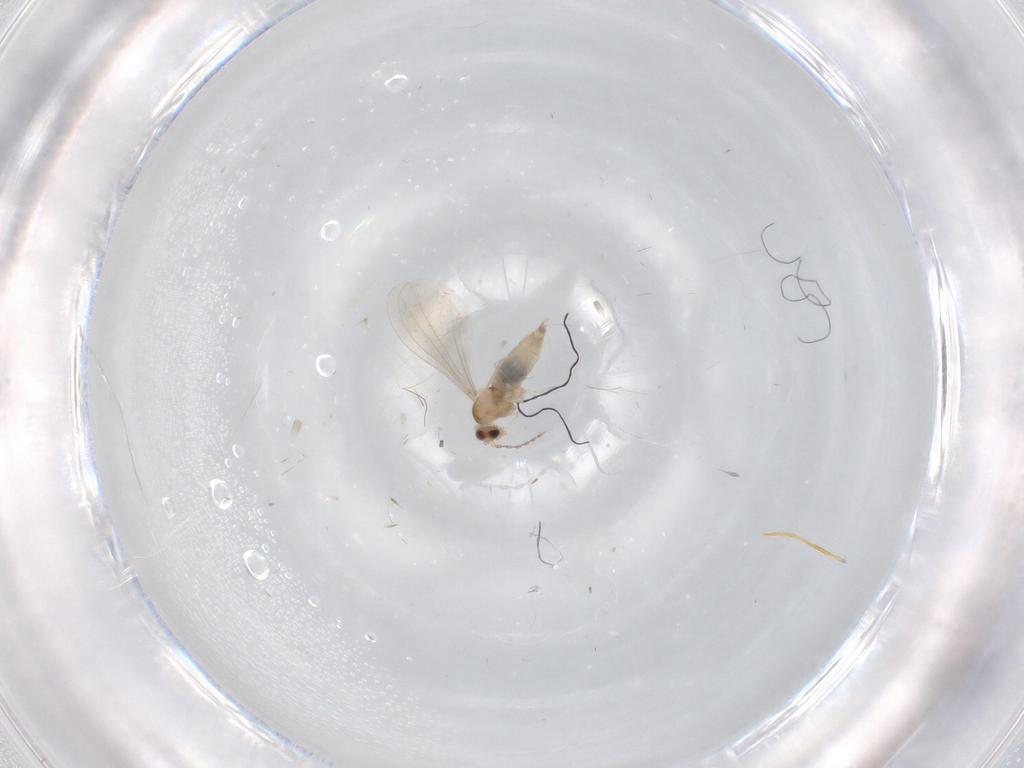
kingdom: Animalia
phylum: Arthropoda
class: Insecta
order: Diptera
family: Cecidomyiidae
